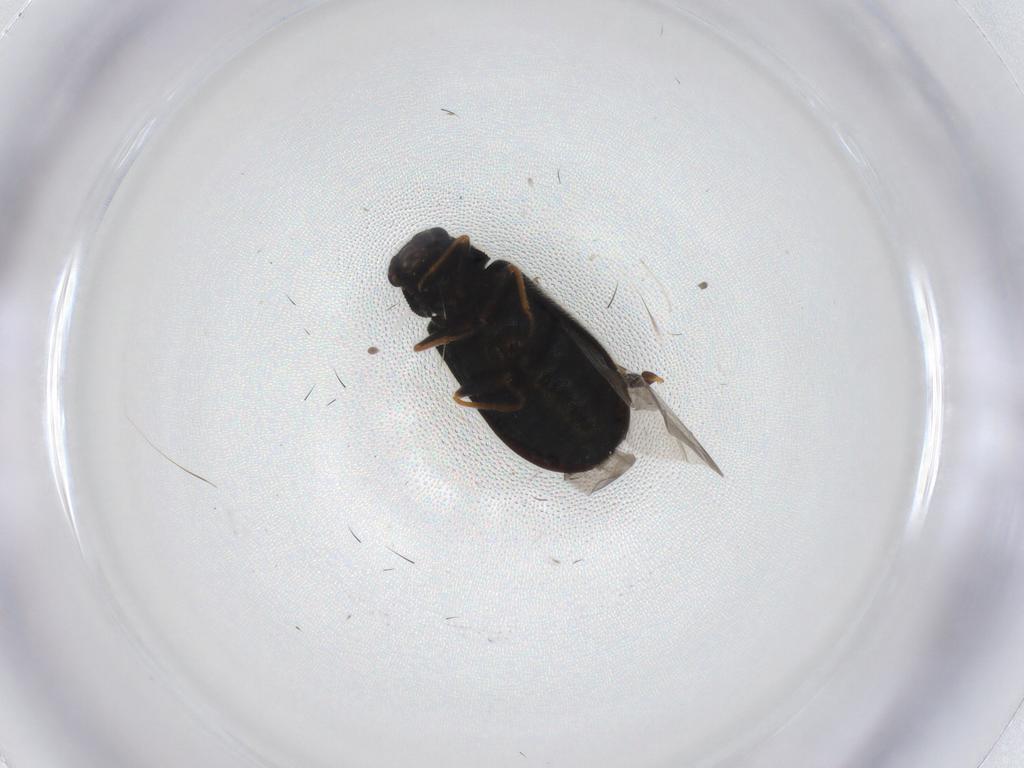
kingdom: Animalia
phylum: Arthropoda
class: Insecta
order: Coleoptera
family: Melyridae
